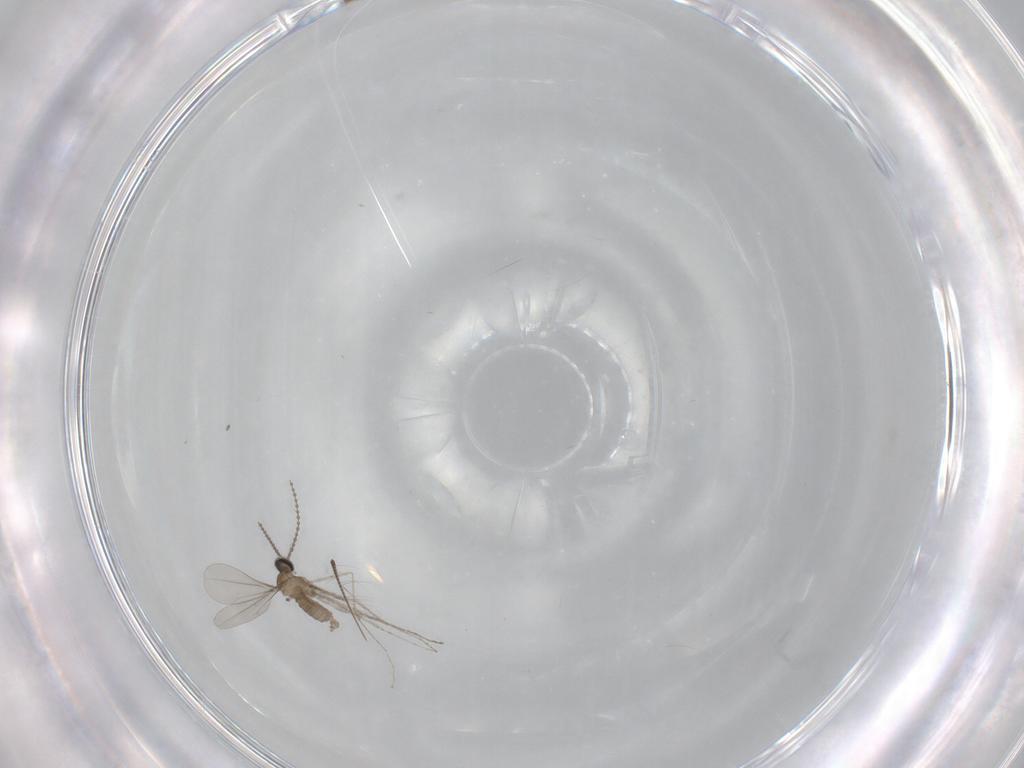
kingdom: Animalia
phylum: Arthropoda
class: Insecta
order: Diptera
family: Cecidomyiidae
